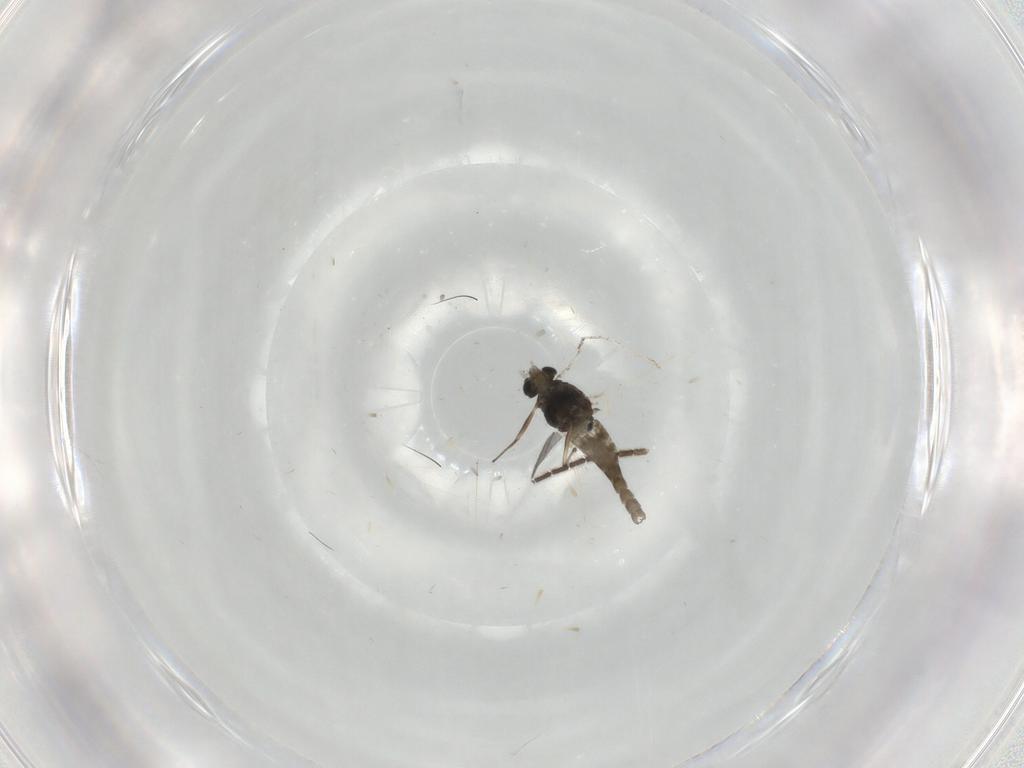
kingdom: Animalia
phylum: Arthropoda
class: Insecta
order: Diptera
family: Sciaridae
